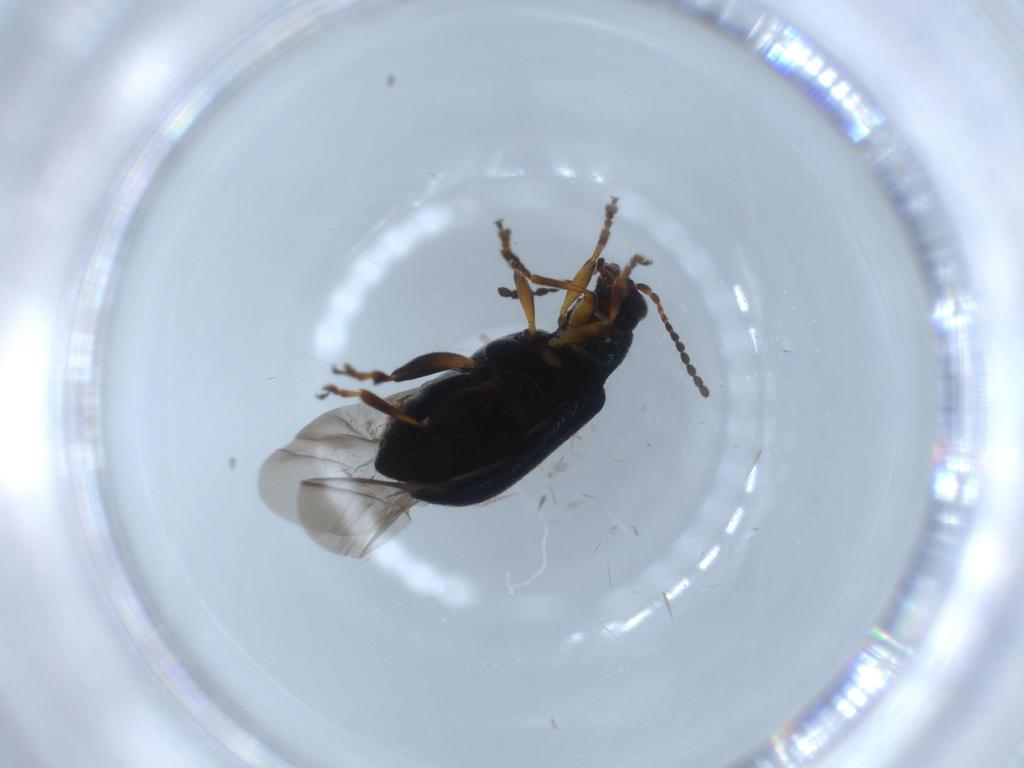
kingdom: Animalia
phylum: Arthropoda
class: Insecta
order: Coleoptera
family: Chrysomelidae
